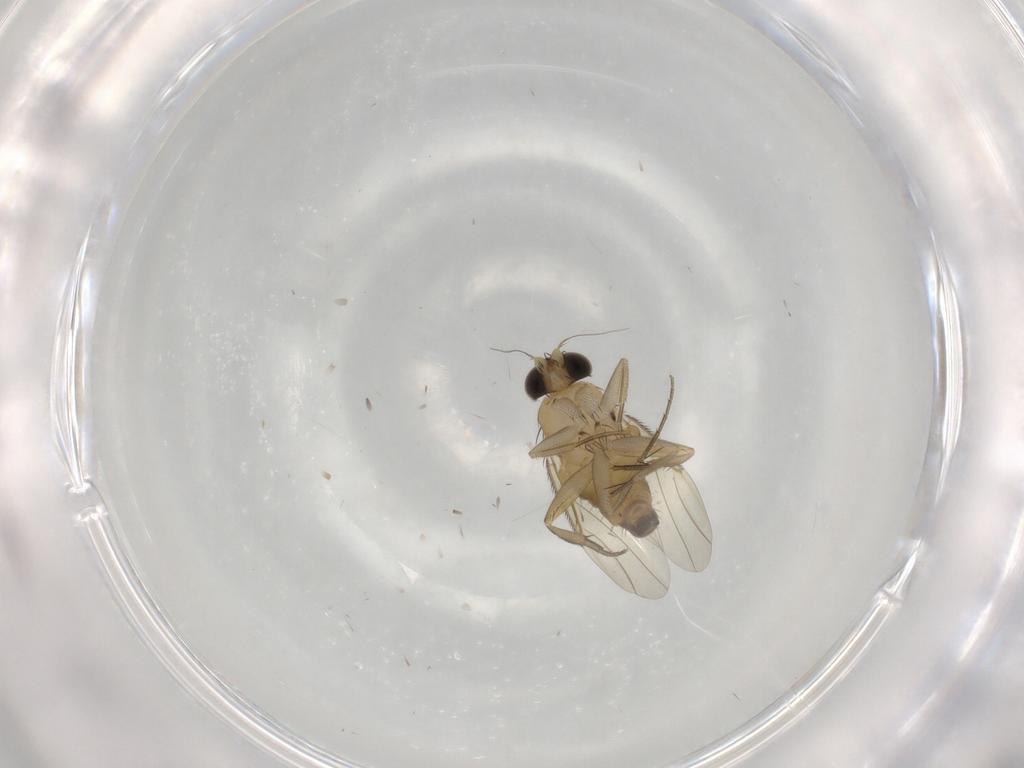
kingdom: Animalia
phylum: Arthropoda
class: Insecta
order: Diptera
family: Phoridae
